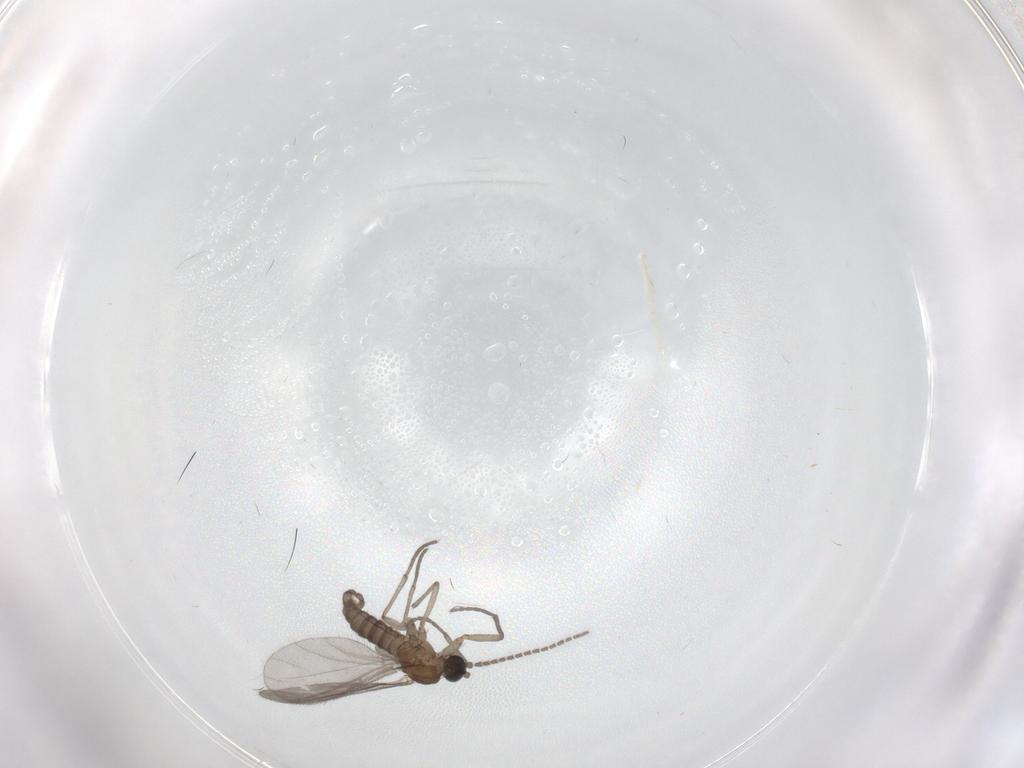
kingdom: Animalia
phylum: Arthropoda
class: Insecta
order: Diptera
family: Sciaridae
